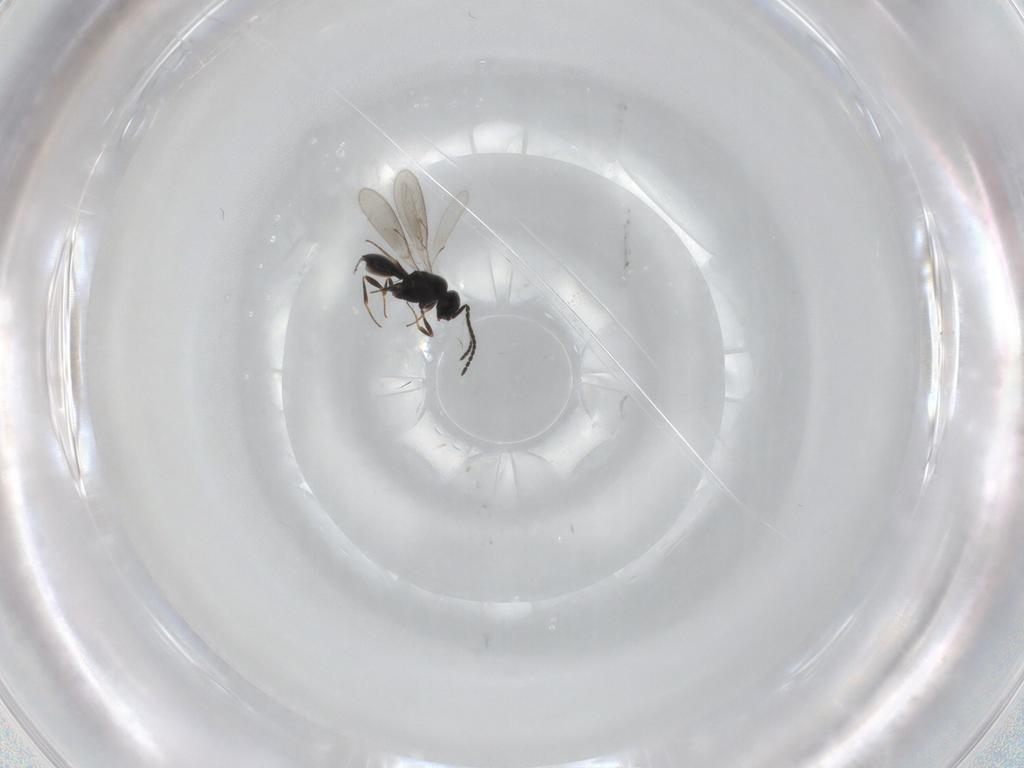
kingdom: Animalia
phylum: Arthropoda
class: Insecta
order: Hymenoptera
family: Scelionidae
